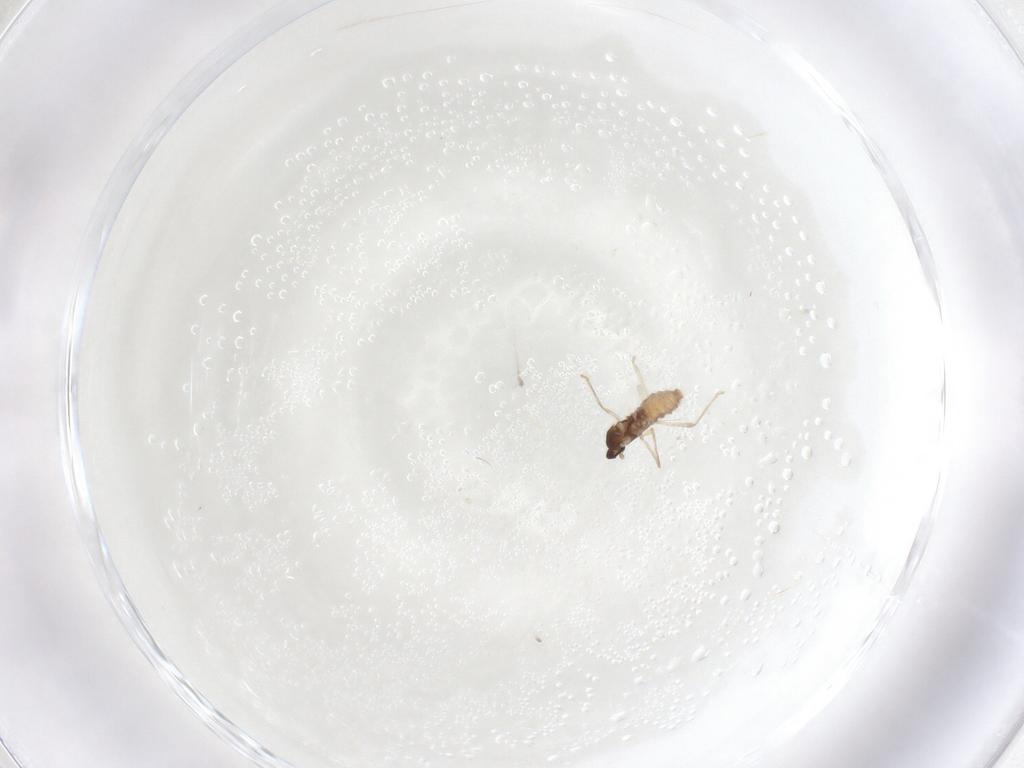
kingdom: Animalia
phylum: Arthropoda
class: Insecta
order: Diptera
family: Cecidomyiidae
